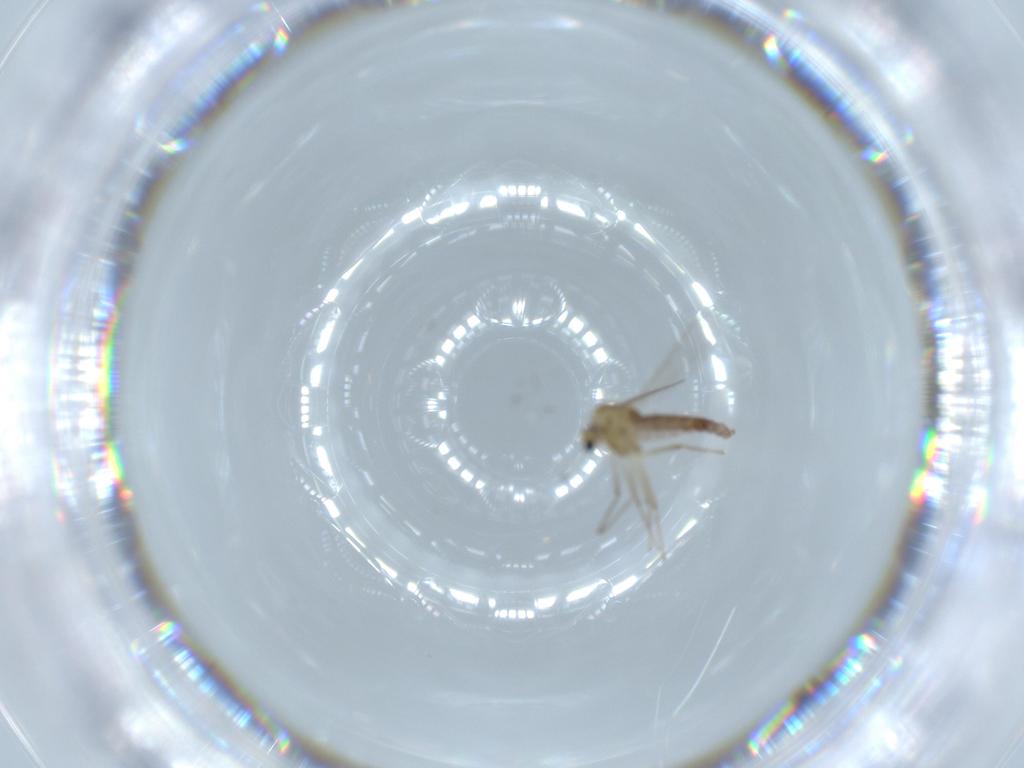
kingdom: Animalia
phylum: Arthropoda
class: Insecta
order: Diptera
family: Chironomidae
